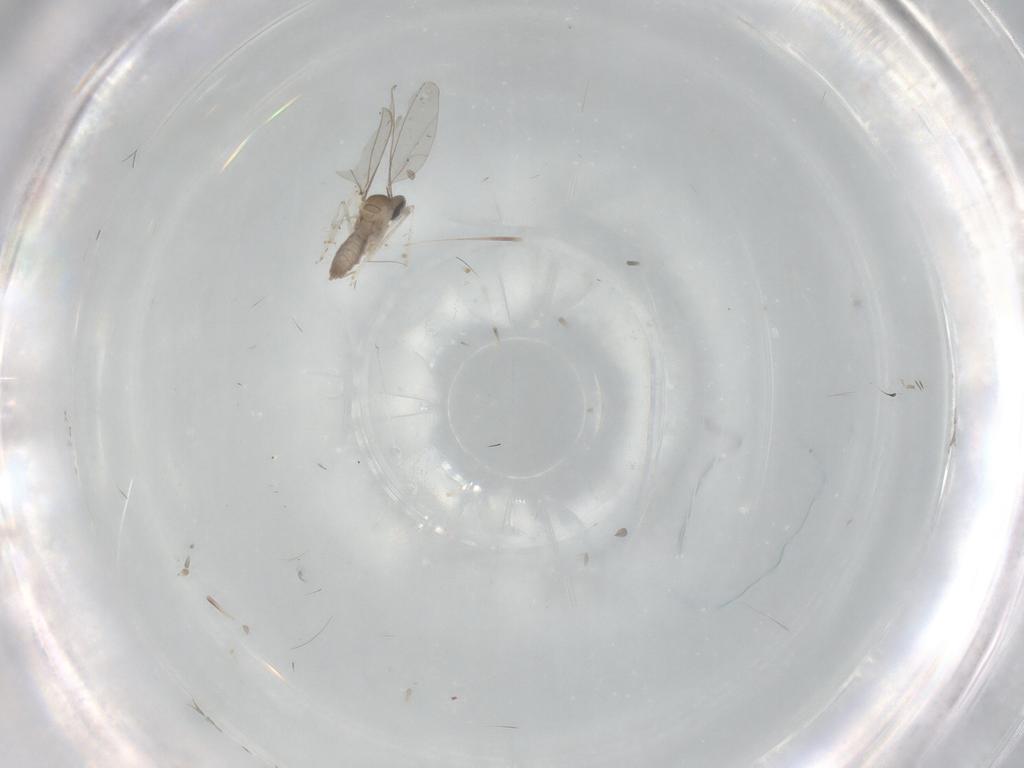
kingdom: Animalia
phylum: Arthropoda
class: Insecta
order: Diptera
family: Cecidomyiidae
